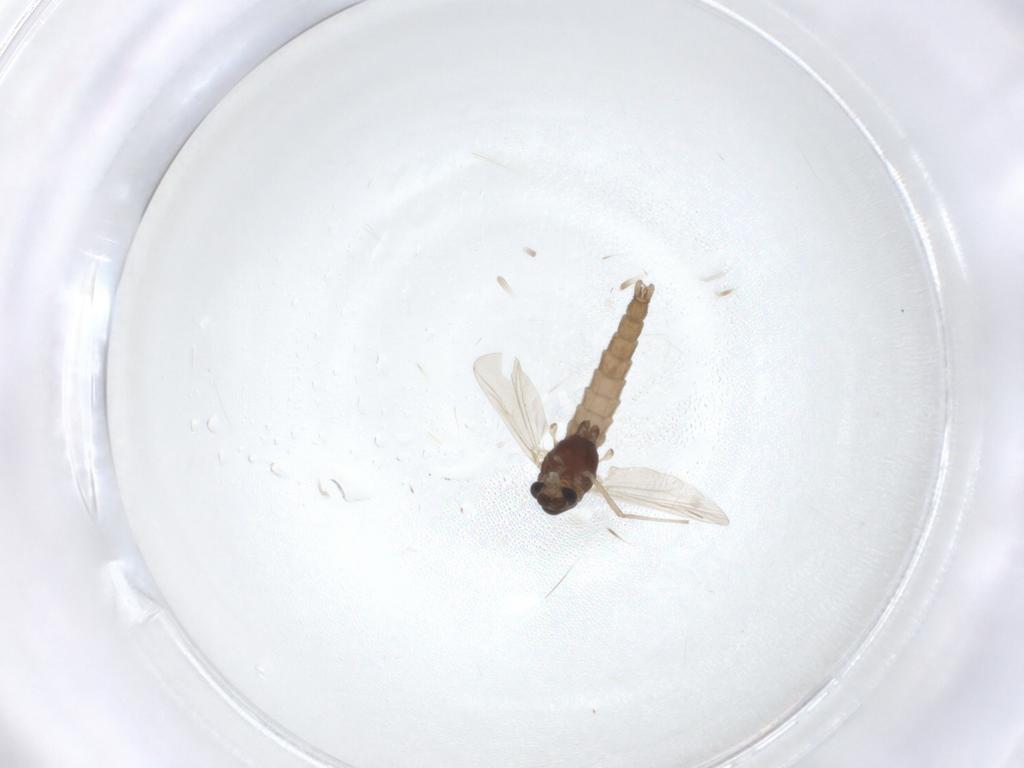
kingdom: Animalia
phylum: Arthropoda
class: Insecta
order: Diptera
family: Chironomidae
